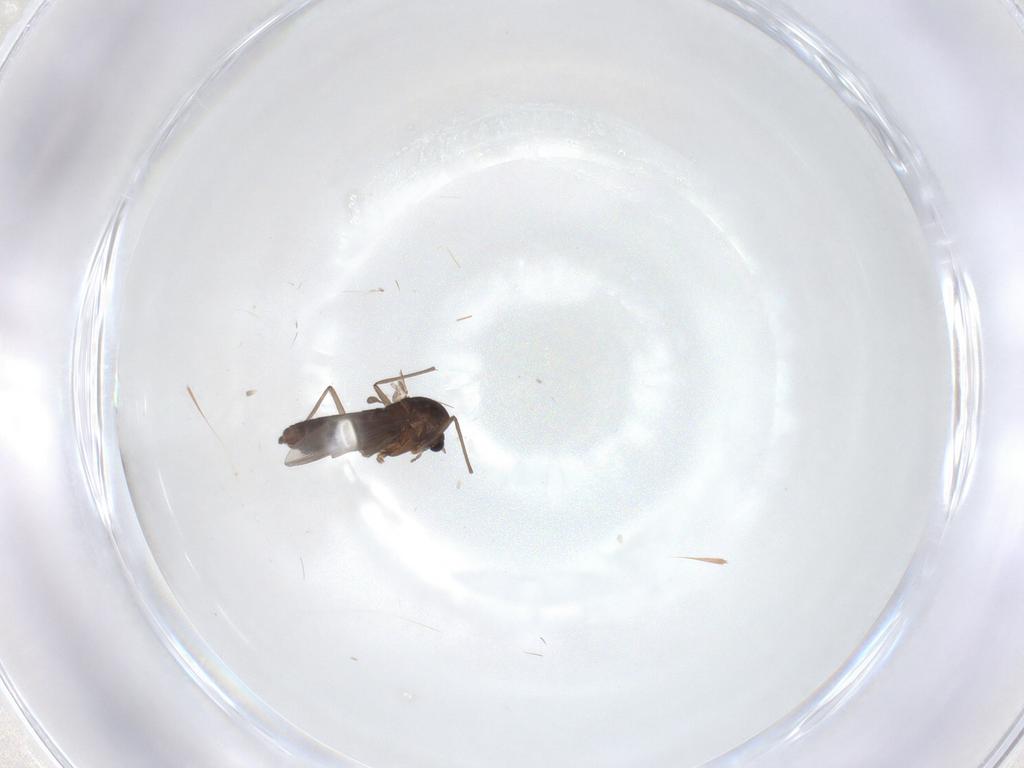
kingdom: Animalia
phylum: Arthropoda
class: Insecta
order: Diptera
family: Chironomidae
